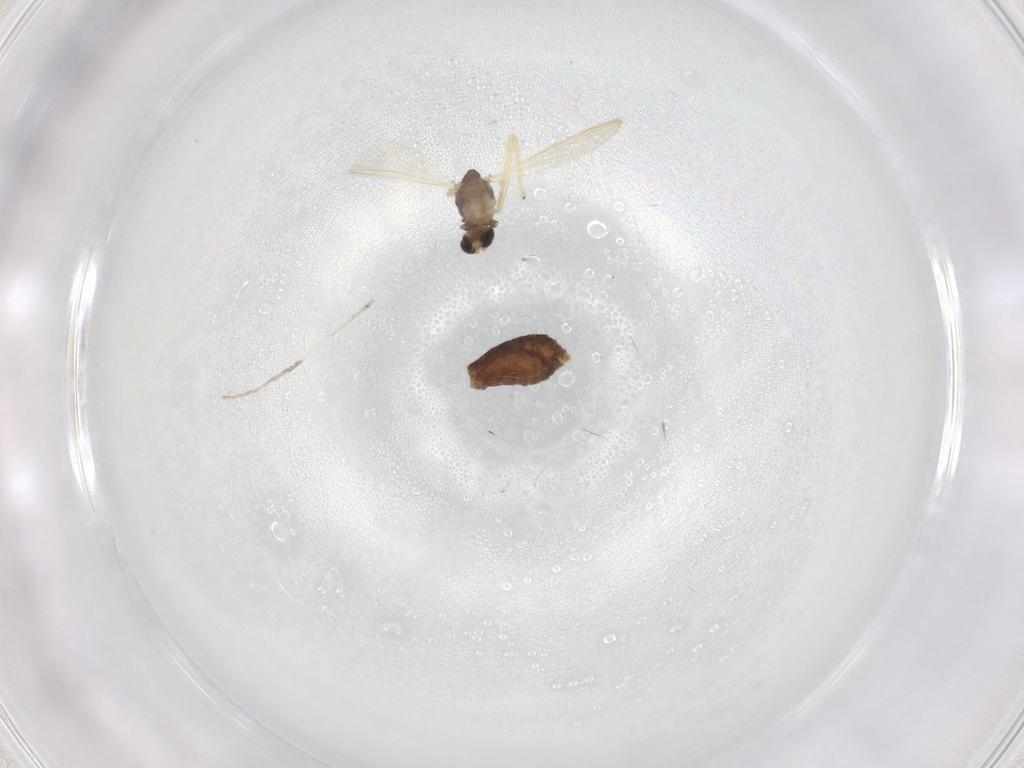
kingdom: Animalia
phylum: Arthropoda
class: Insecta
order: Diptera
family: Chironomidae
